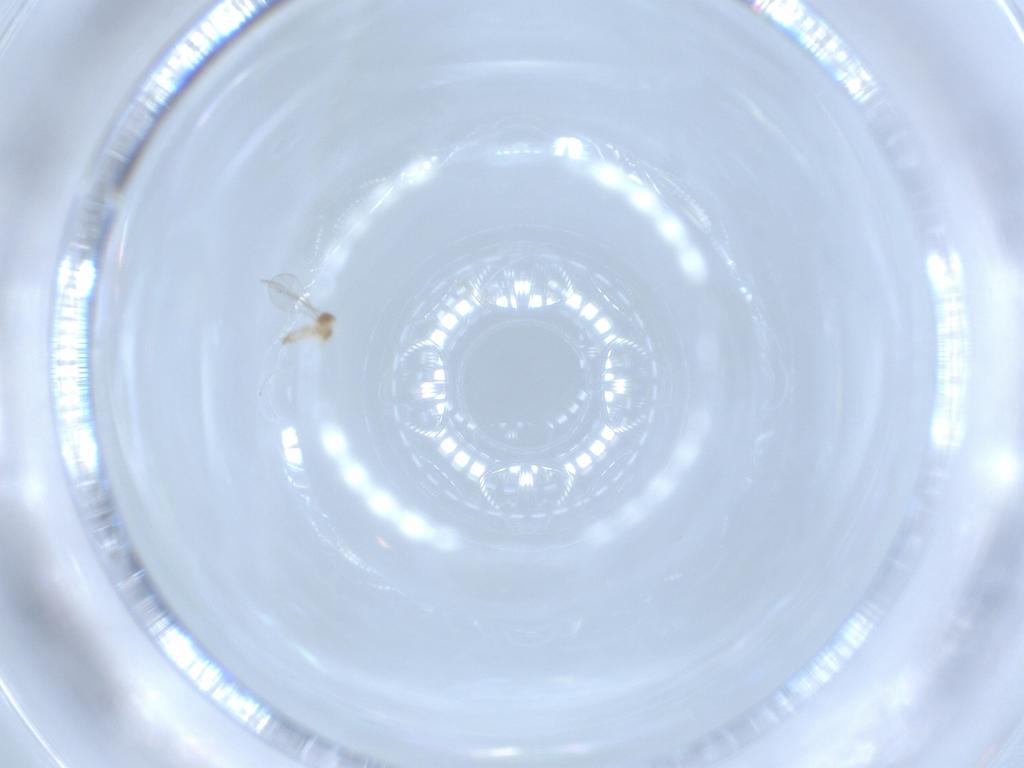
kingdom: Animalia
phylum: Arthropoda
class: Insecta
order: Diptera
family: Cecidomyiidae
